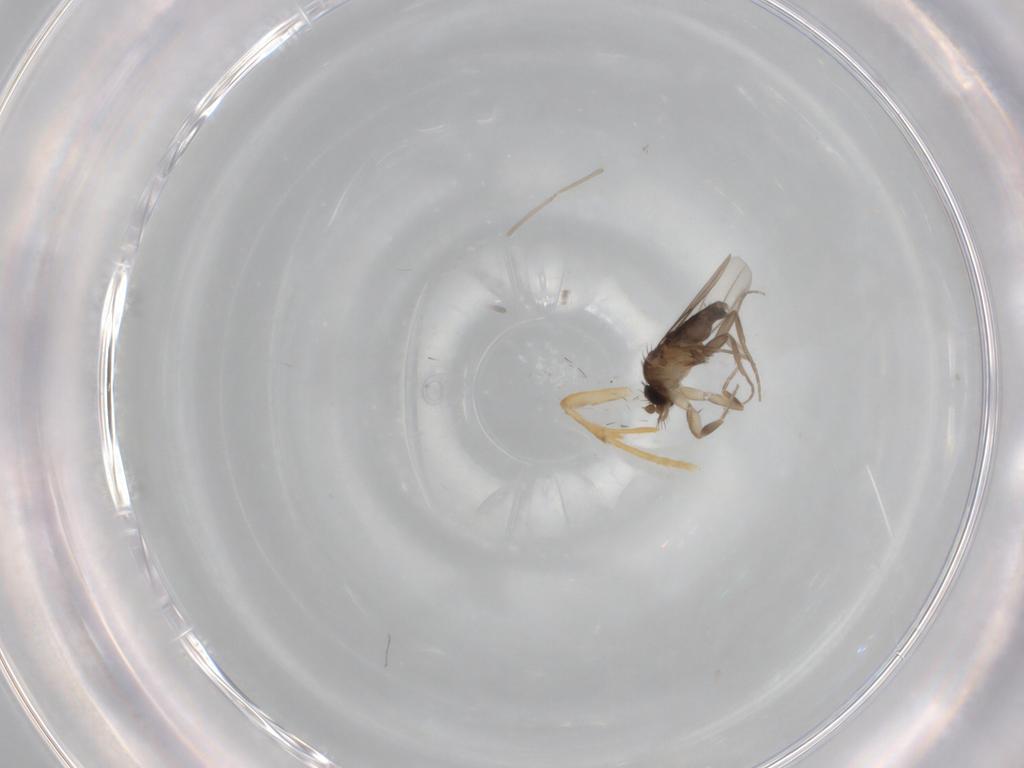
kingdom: Animalia
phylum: Arthropoda
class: Insecta
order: Diptera
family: Phoridae
